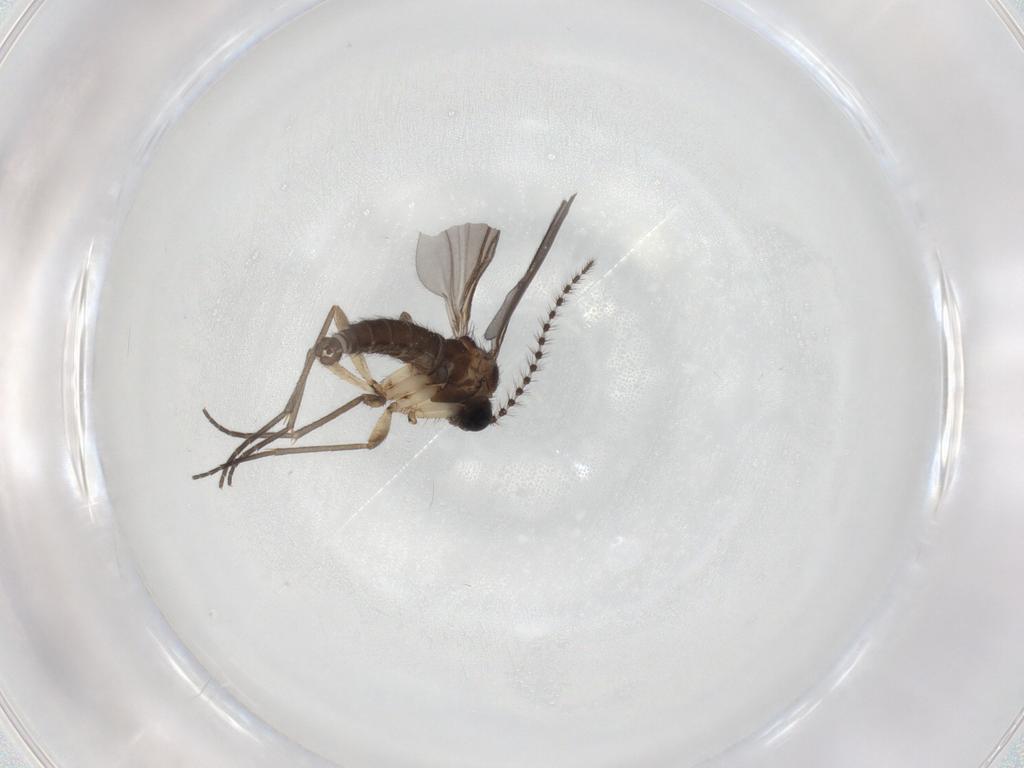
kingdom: Animalia
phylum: Arthropoda
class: Insecta
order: Diptera
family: Sciaridae
